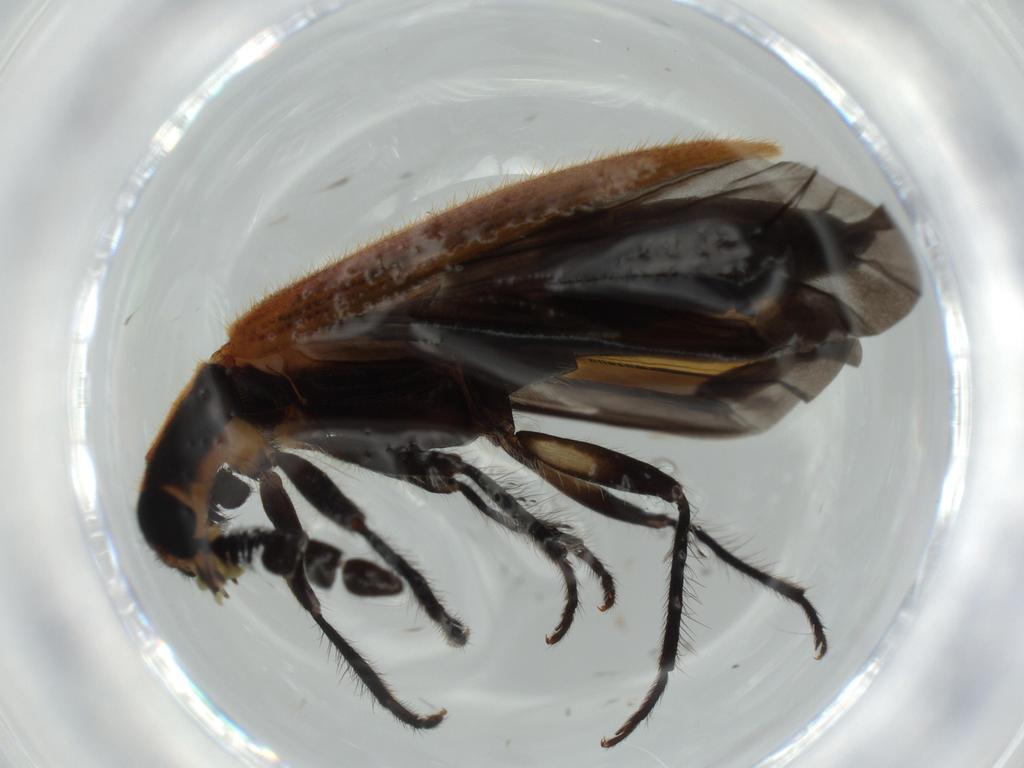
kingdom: Animalia
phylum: Arthropoda
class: Insecta
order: Coleoptera
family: Cleridae
